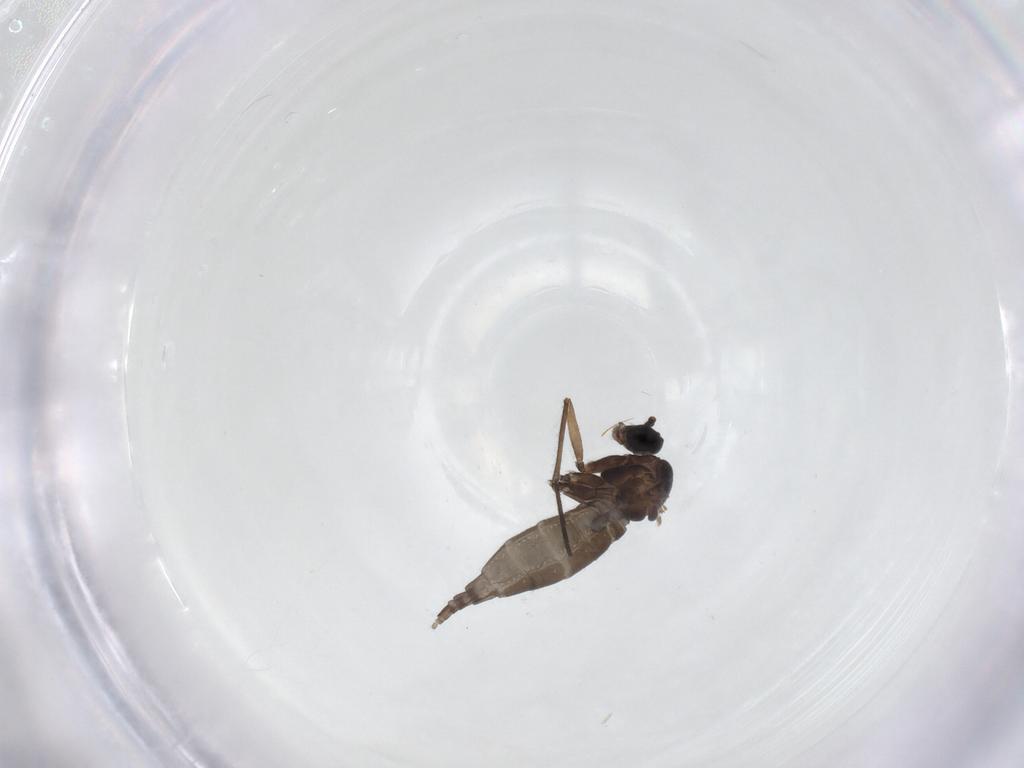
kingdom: Animalia
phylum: Arthropoda
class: Insecta
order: Diptera
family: Sciaridae
